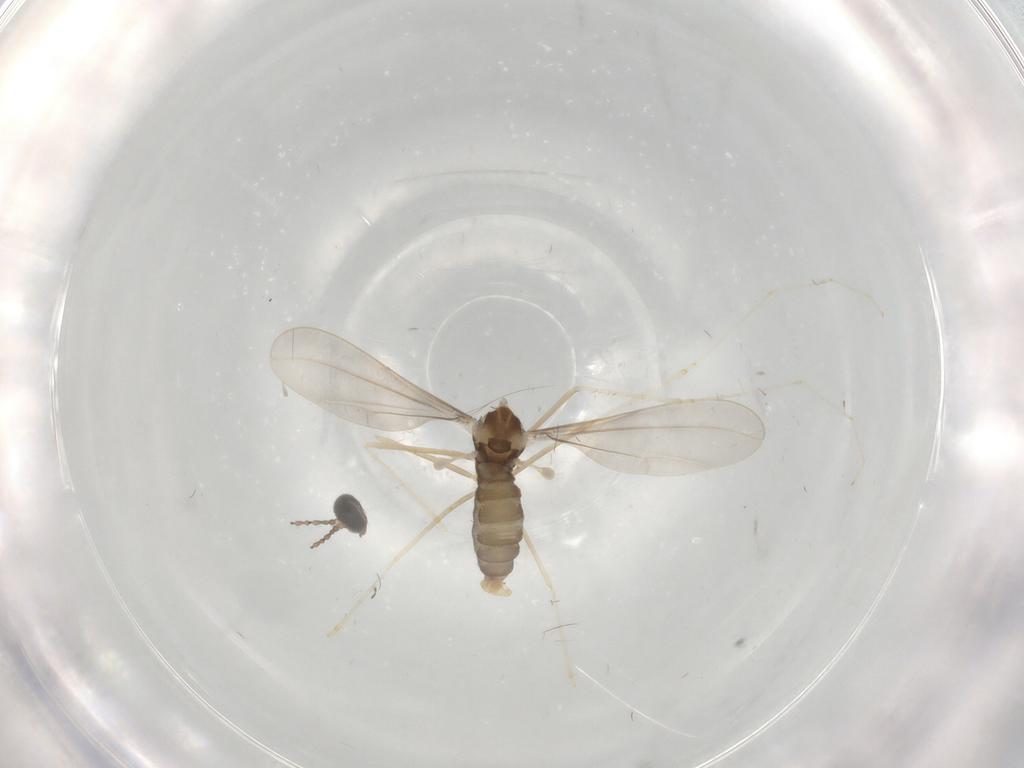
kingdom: Animalia
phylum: Arthropoda
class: Insecta
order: Diptera
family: Cecidomyiidae
